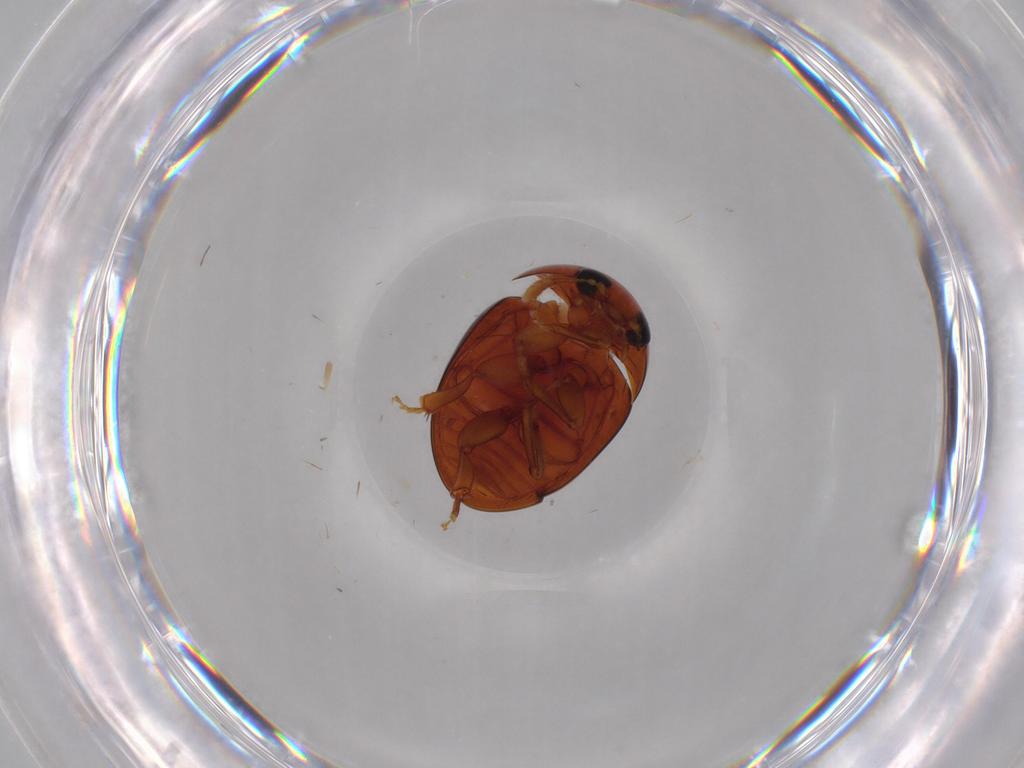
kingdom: Animalia
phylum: Arthropoda
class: Insecta
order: Coleoptera
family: Phalacridae
